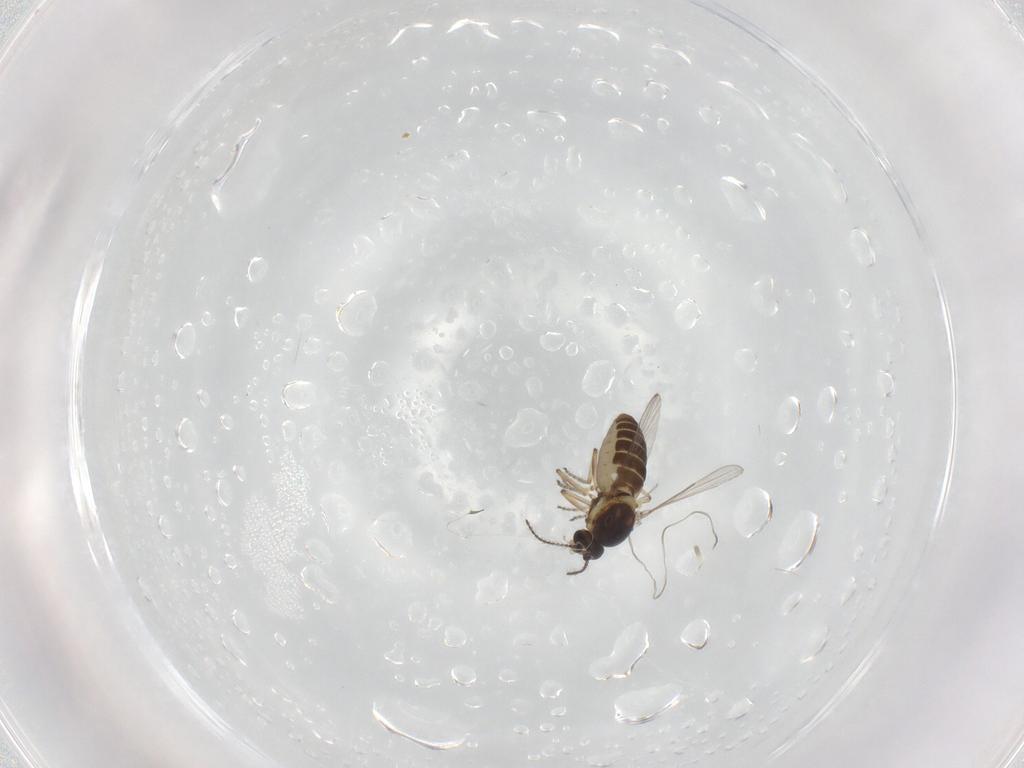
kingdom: Animalia
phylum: Arthropoda
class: Insecta
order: Diptera
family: Ceratopogonidae
